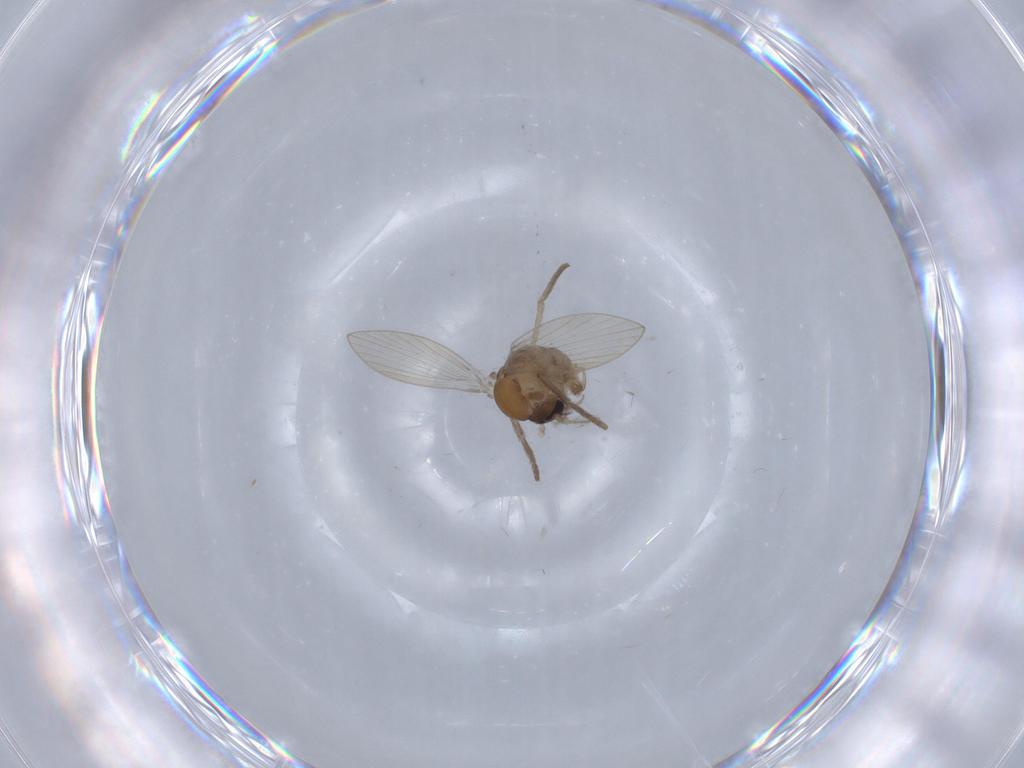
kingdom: Animalia
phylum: Arthropoda
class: Insecta
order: Diptera
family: Psychodidae
